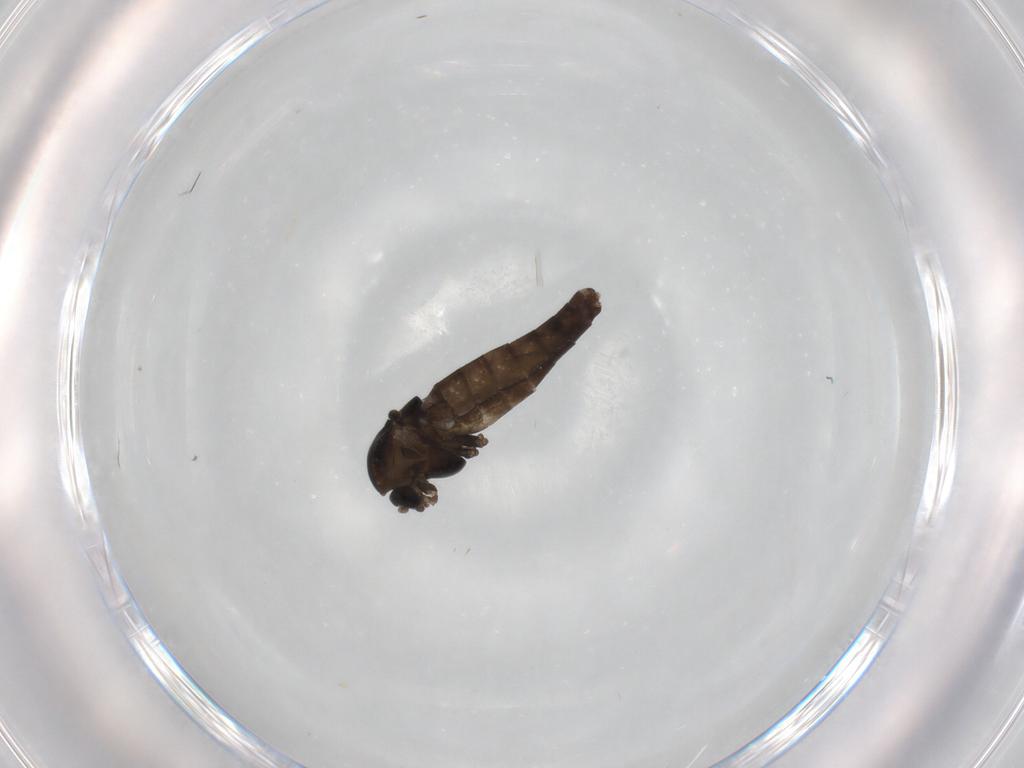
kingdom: Animalia
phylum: Arthropoda
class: Insecta
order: Diptera
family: Chironomidae
